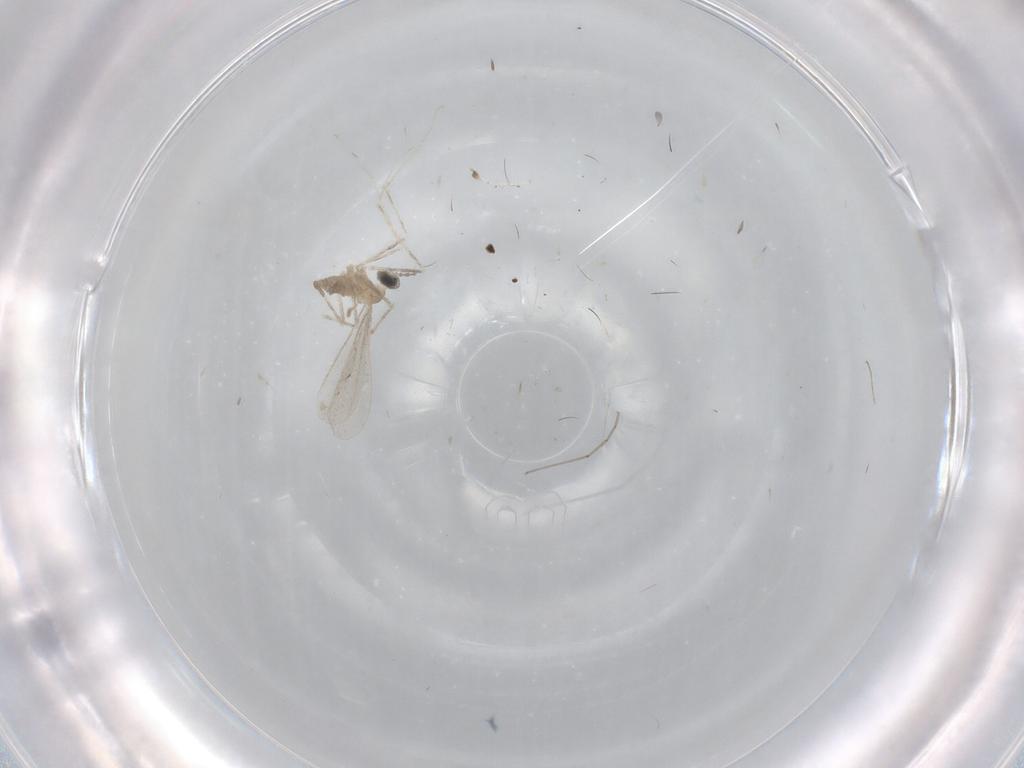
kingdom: Animalia
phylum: Arthropoda
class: Insecta
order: Diptera
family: Cecidomyiidae
